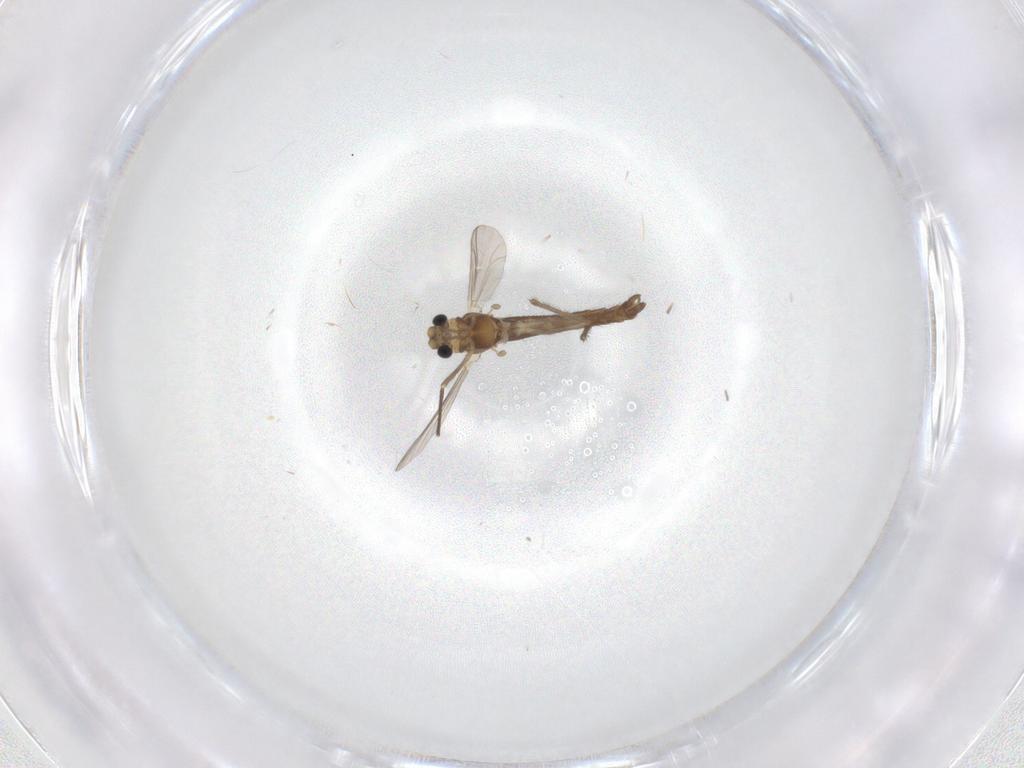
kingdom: Animalia
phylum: Arthropoda
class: Insecta
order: Diptera
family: Chironomidae
